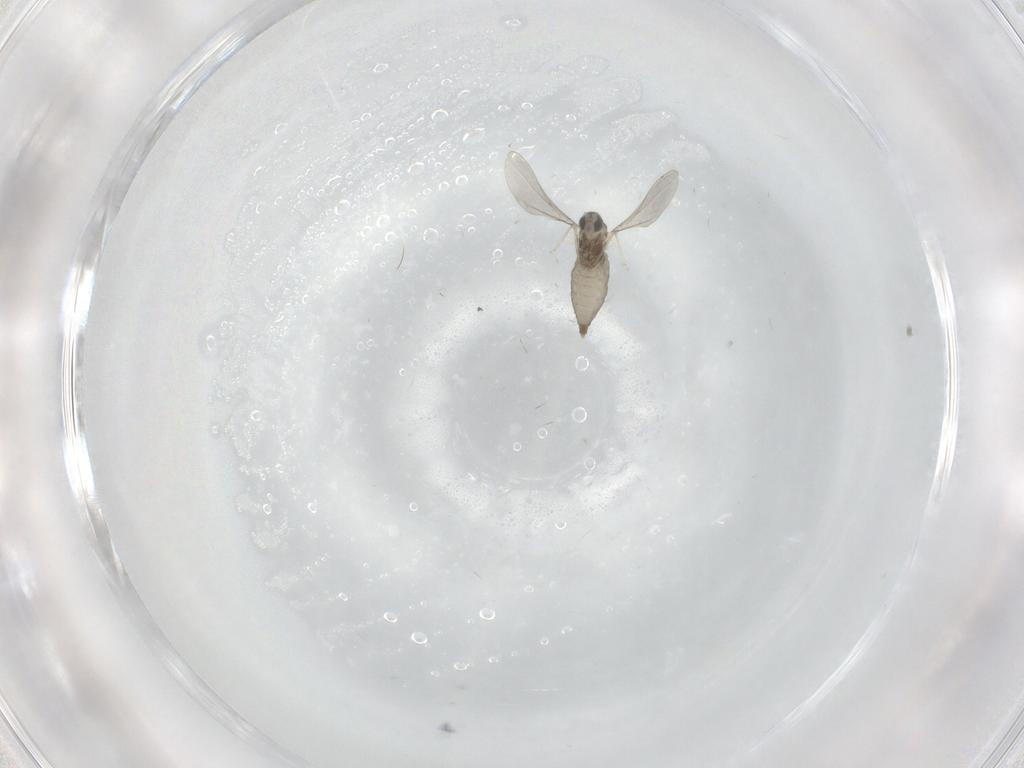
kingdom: Animalia
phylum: Arthropoda
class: Insecta
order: Diptera
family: Cecidomyiidae
